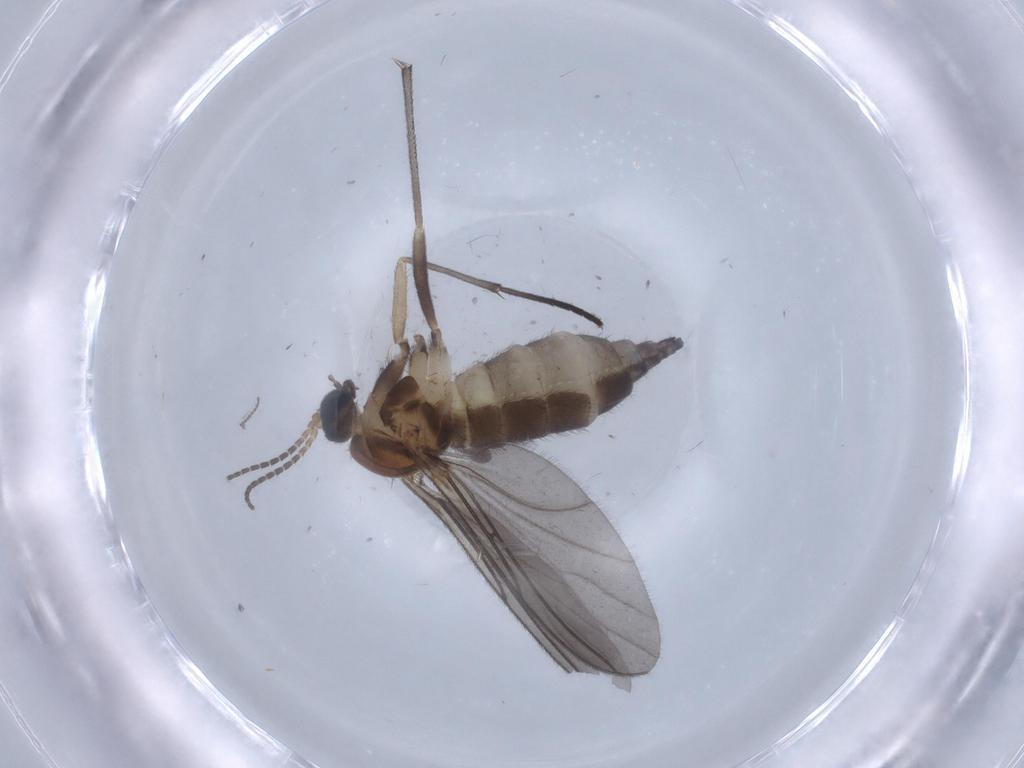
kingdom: Animalia
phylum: Arthropoda
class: Insecta
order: Diptera
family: Sciaridae
